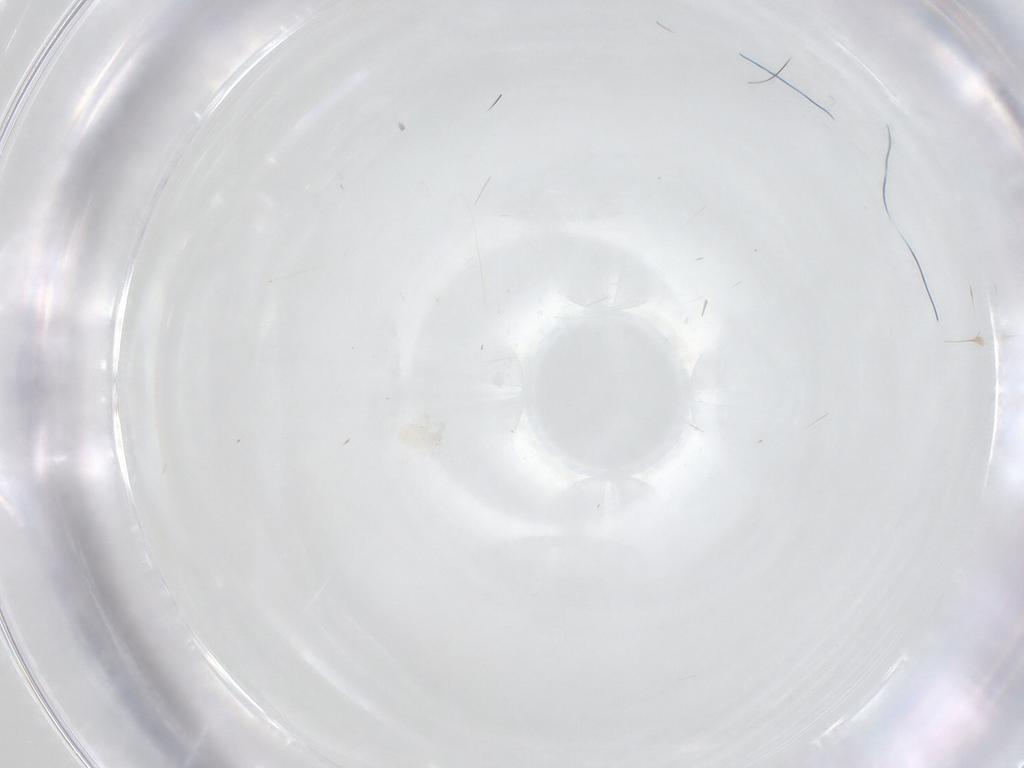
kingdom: Animalia
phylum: Arthropoda
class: Arachnida
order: Trombidiformes
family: Anystidae
